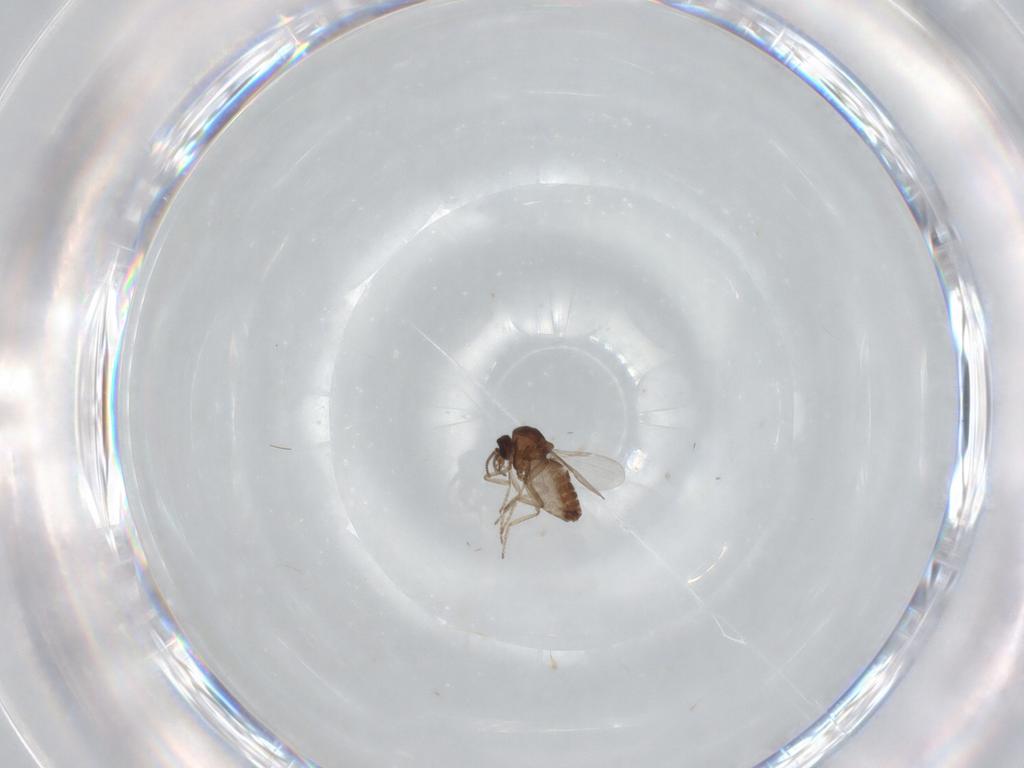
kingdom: Animalia
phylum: Arthropoda
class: Insecta
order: Diptera
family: Ceratopogonidae
